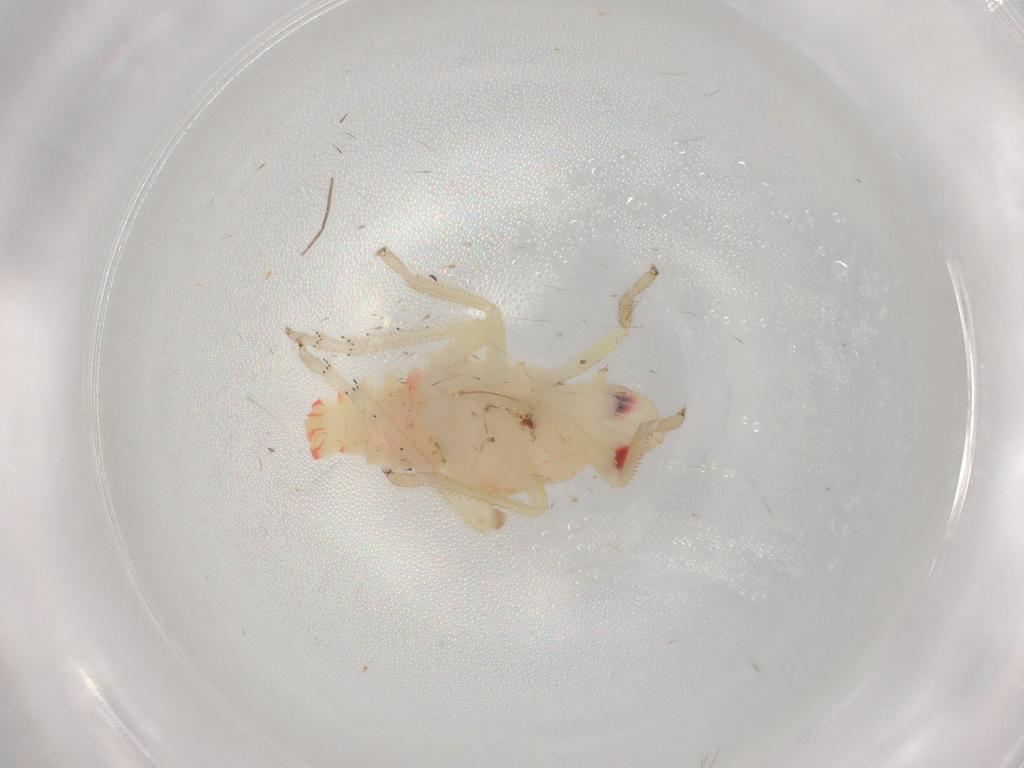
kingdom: Animalia
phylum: Arthropoda
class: Insecta
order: Hemiptera
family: Tropiduchidae
